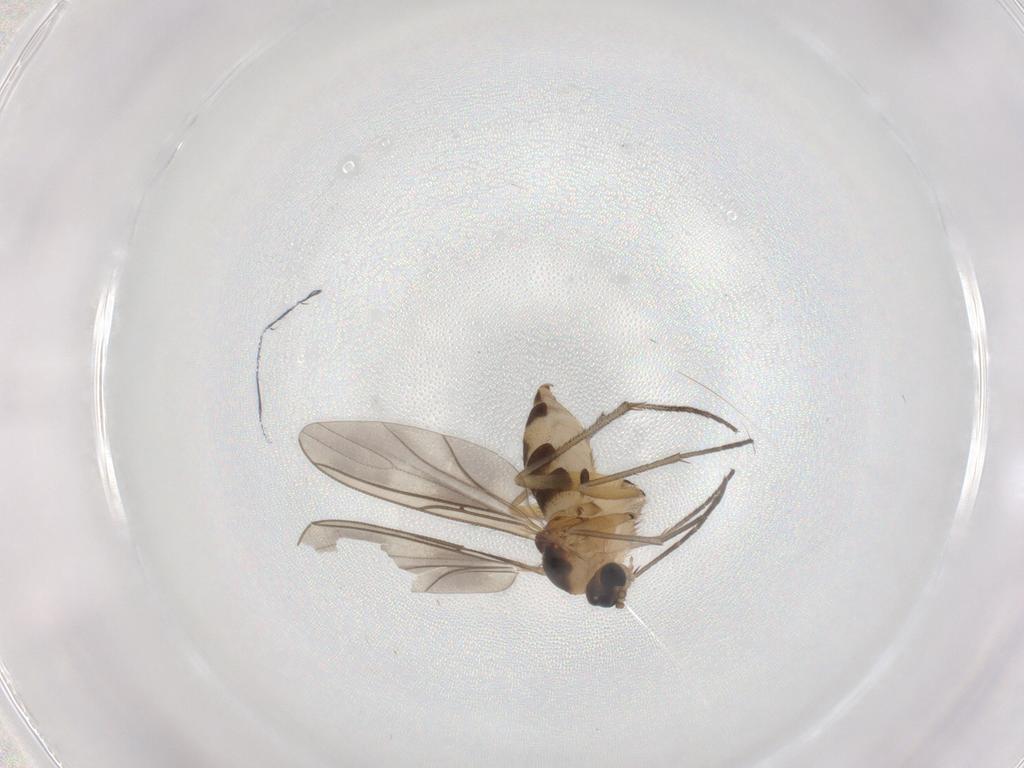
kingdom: Animalia
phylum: Arthropoda
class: Insecta
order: Diptera
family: Sciaridae
